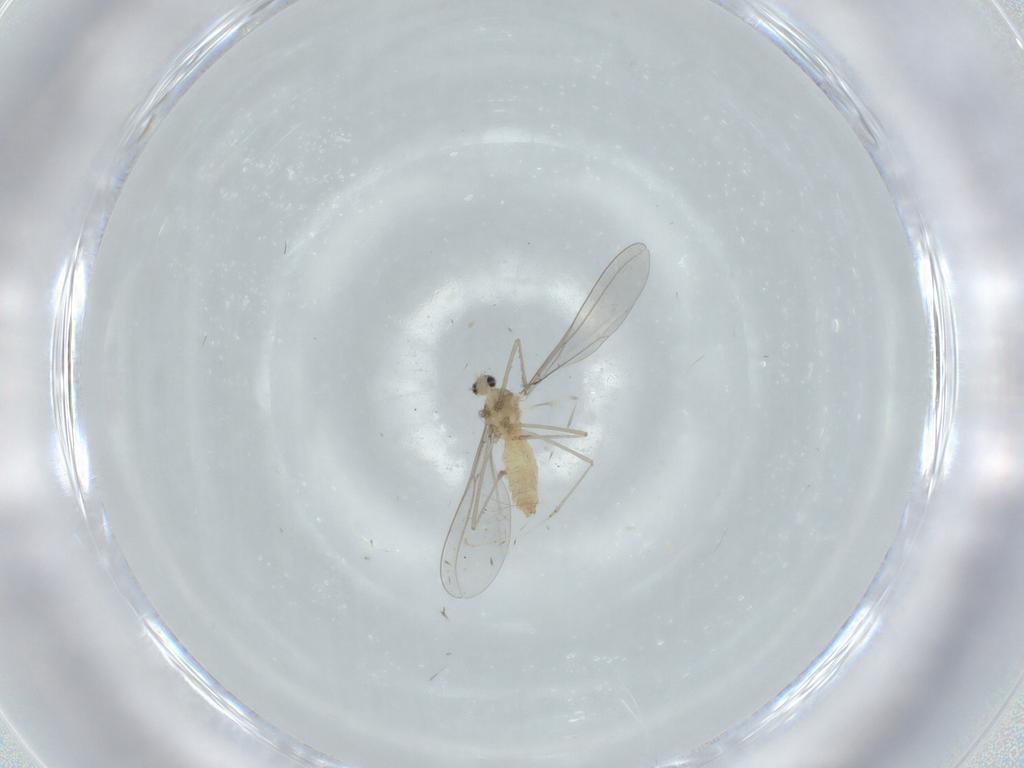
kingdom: Animalia
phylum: Arthropoda
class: Insecta
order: Diptera
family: Cecidomyiidae
